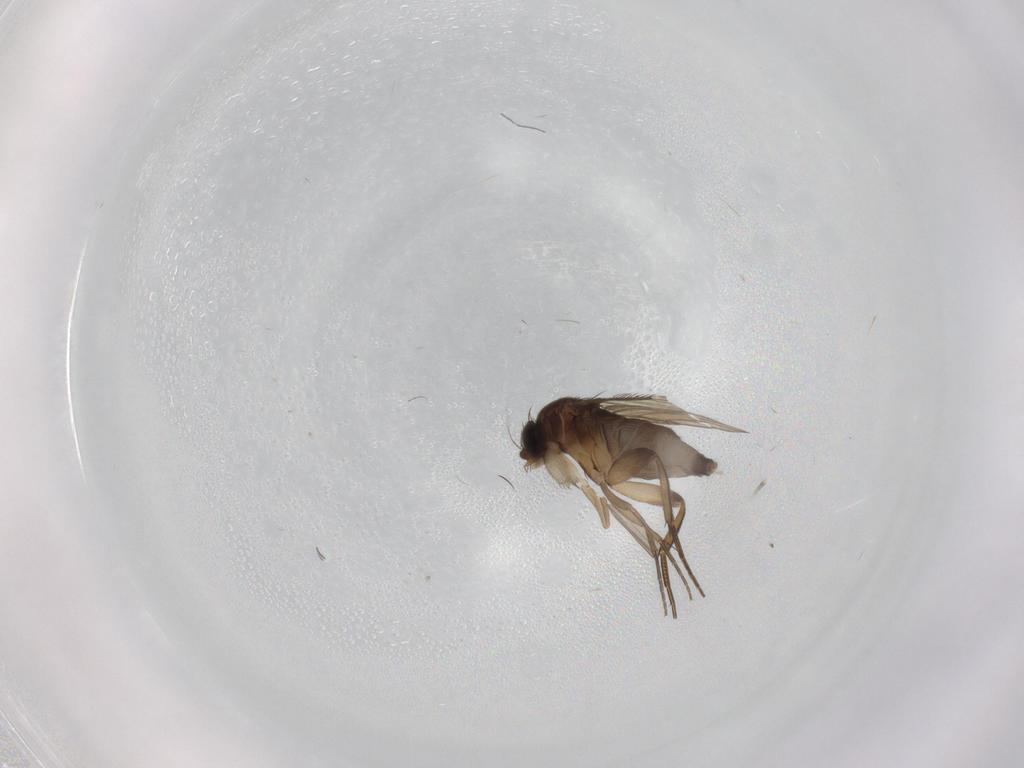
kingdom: Animalia
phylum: Arthropoda
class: Insecta
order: Diptera
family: Phoridae
